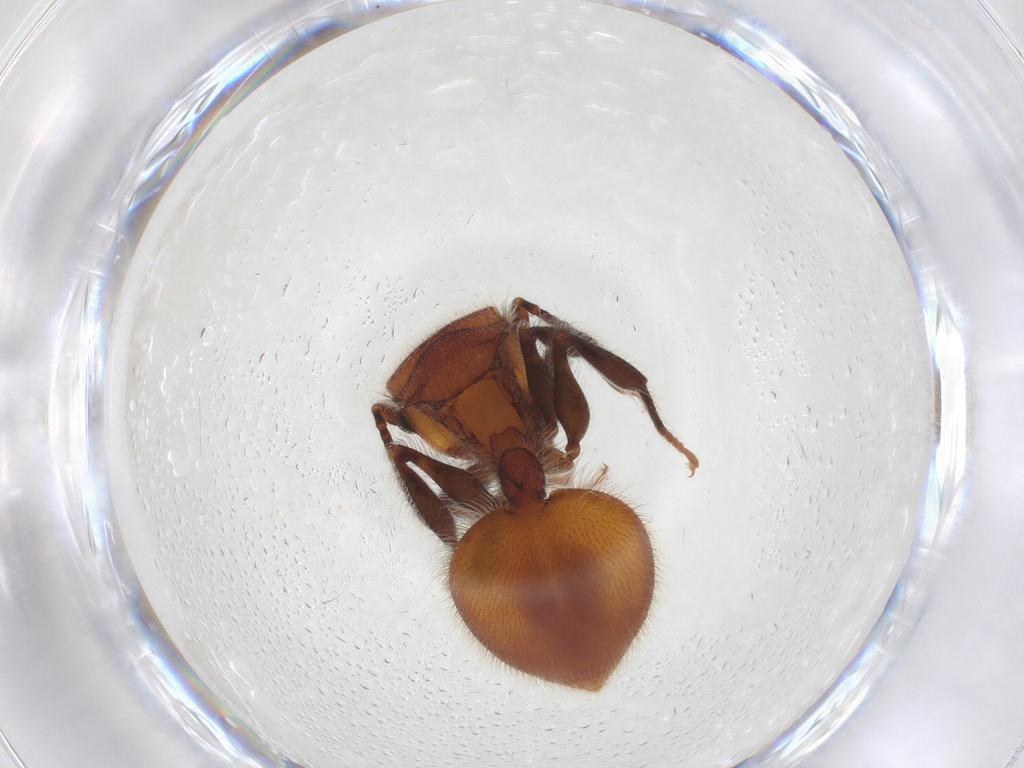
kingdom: Animalia
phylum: Arthropoda
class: Insecta
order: Hymenoptera
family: Formicidae
